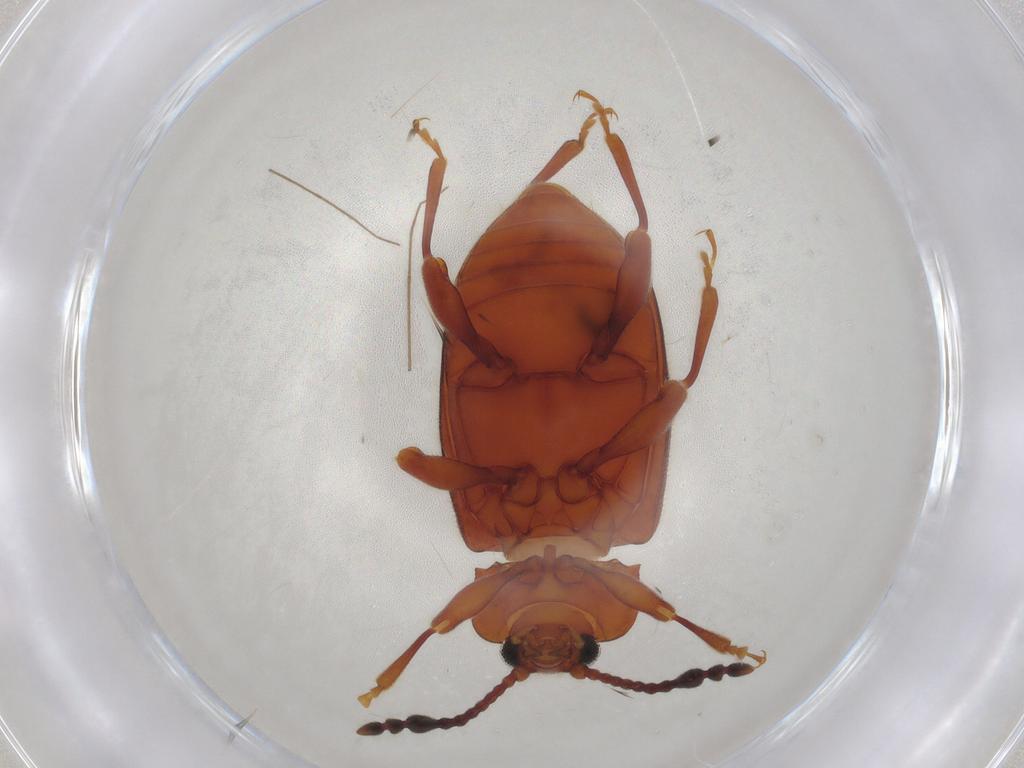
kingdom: Animalia
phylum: Arthropoda
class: Insecta
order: Coleoptera
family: Endomychidae
